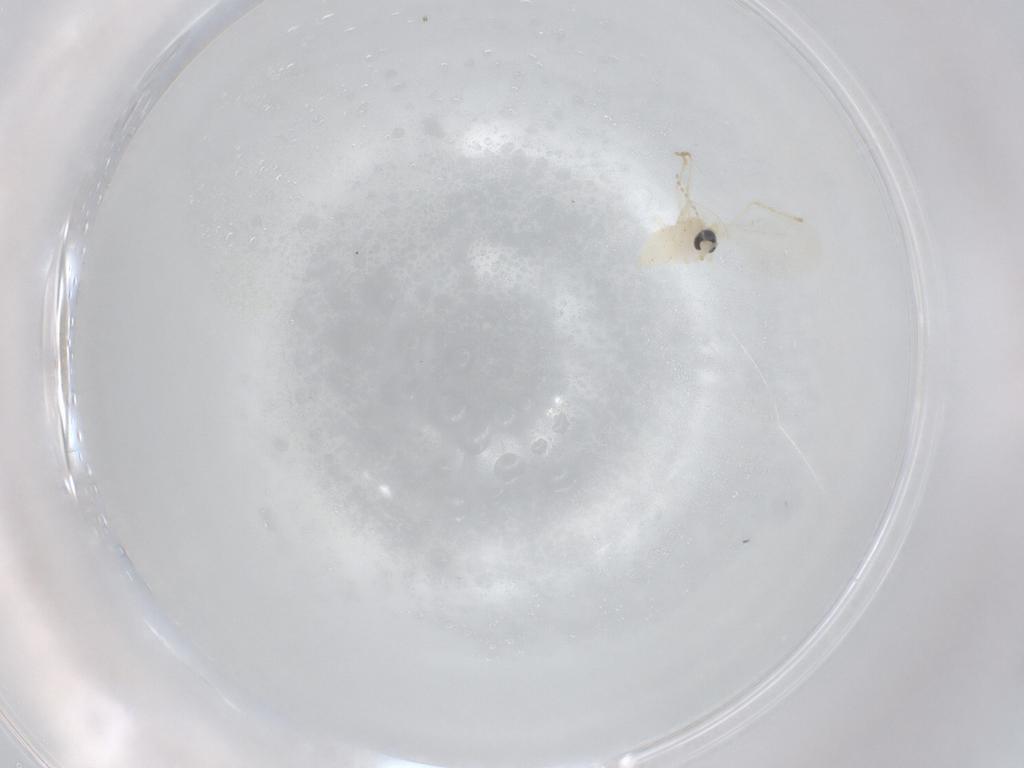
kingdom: Animalia
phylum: Arthropoda
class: Insecta
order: Diptera
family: Cecidomyiidae
